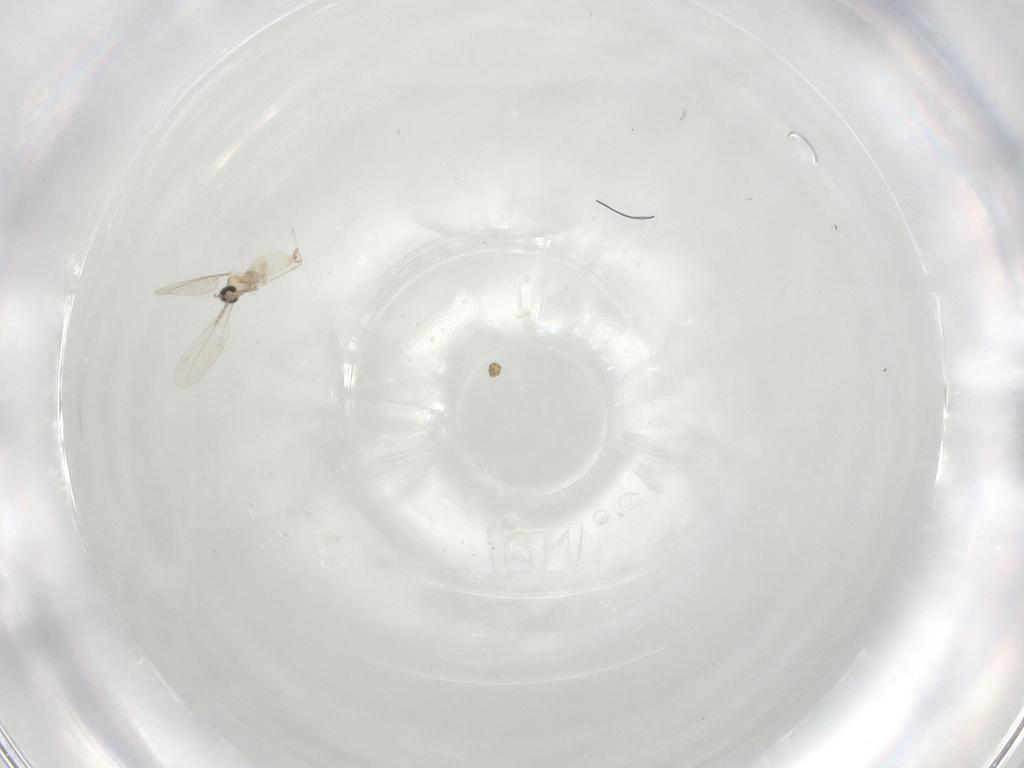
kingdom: Animalia
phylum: Arthropoda
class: Insecta
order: Diptera
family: Cecidomyiidae
